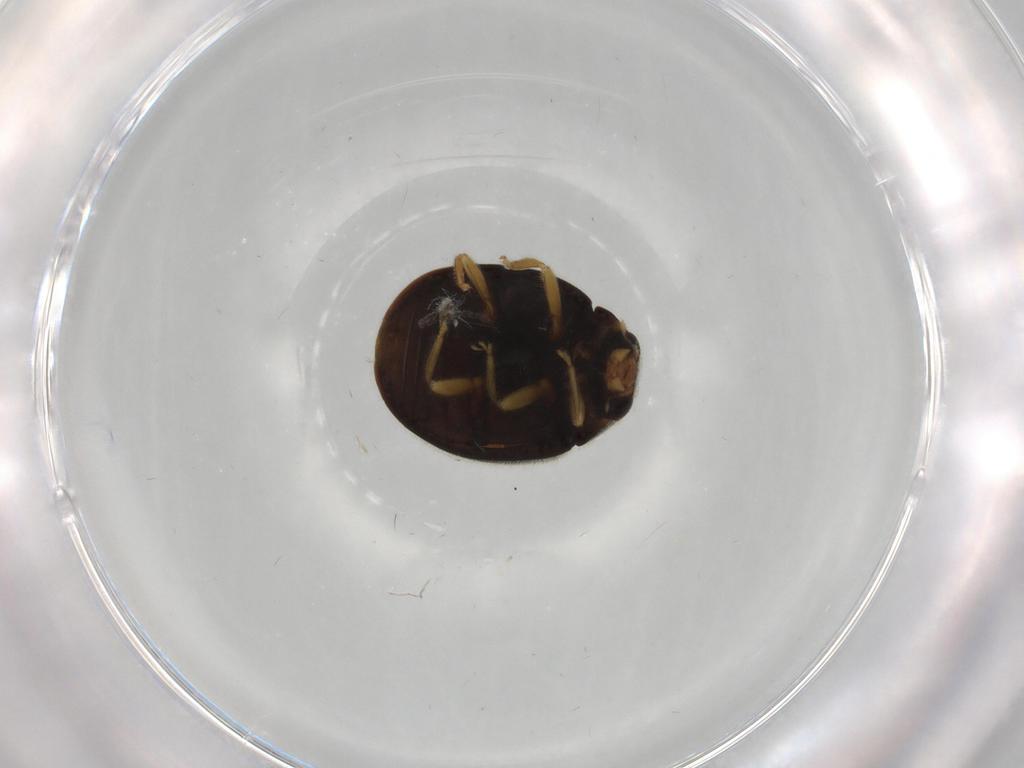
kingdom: Animalia
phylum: Arthropoda
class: Insecta
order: Coleoptera
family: Coccinellidae
